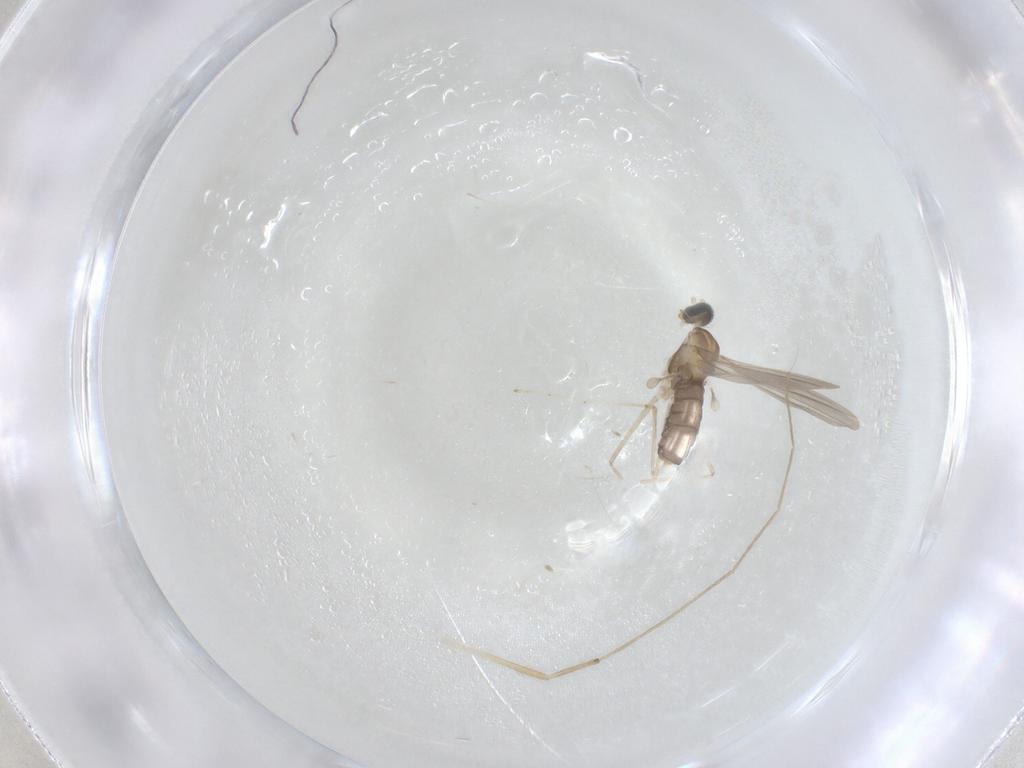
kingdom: Animalia
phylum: Arthropoda
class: Insecta
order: Diptera
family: Cecidomyiidae
